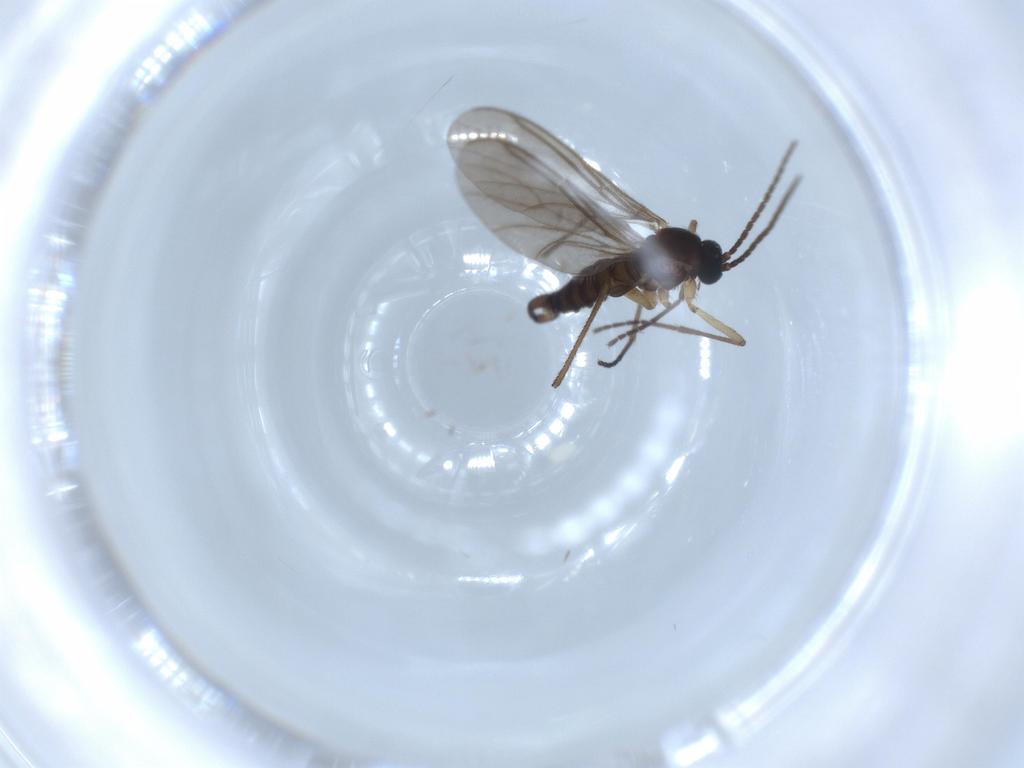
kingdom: Animalia
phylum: Arthropoda
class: Insecta
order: Diptera
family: Sciaridae
